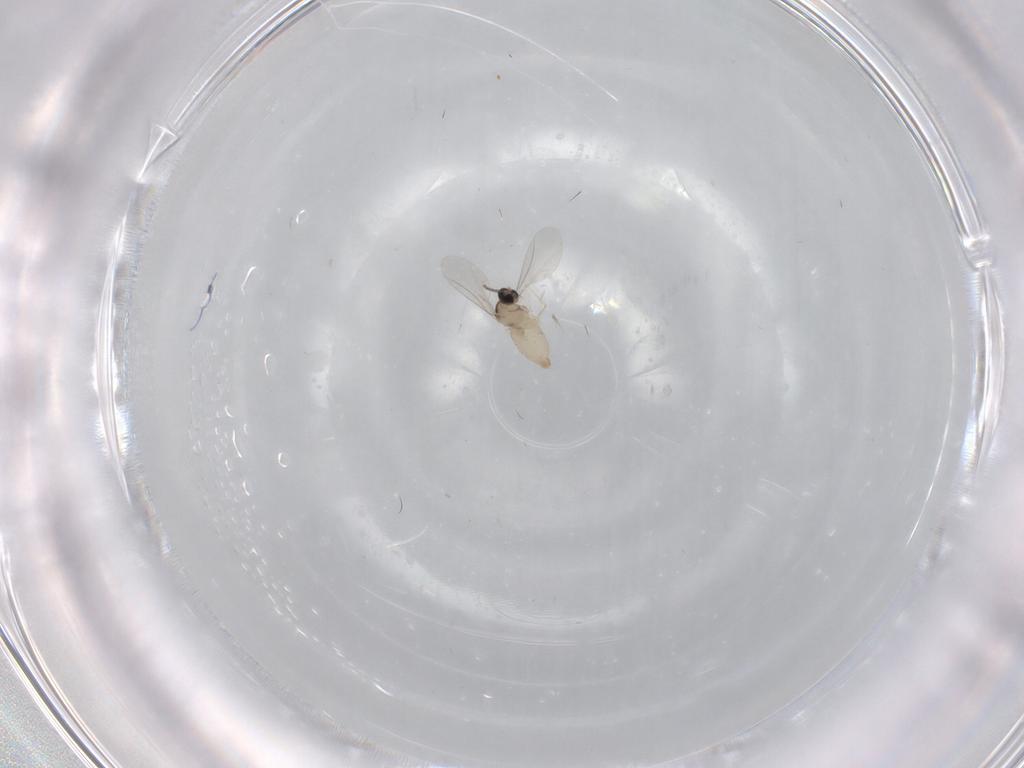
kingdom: Animalia
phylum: Arthropoda
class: Insecta
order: Diptera
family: Cecidomyiidae
